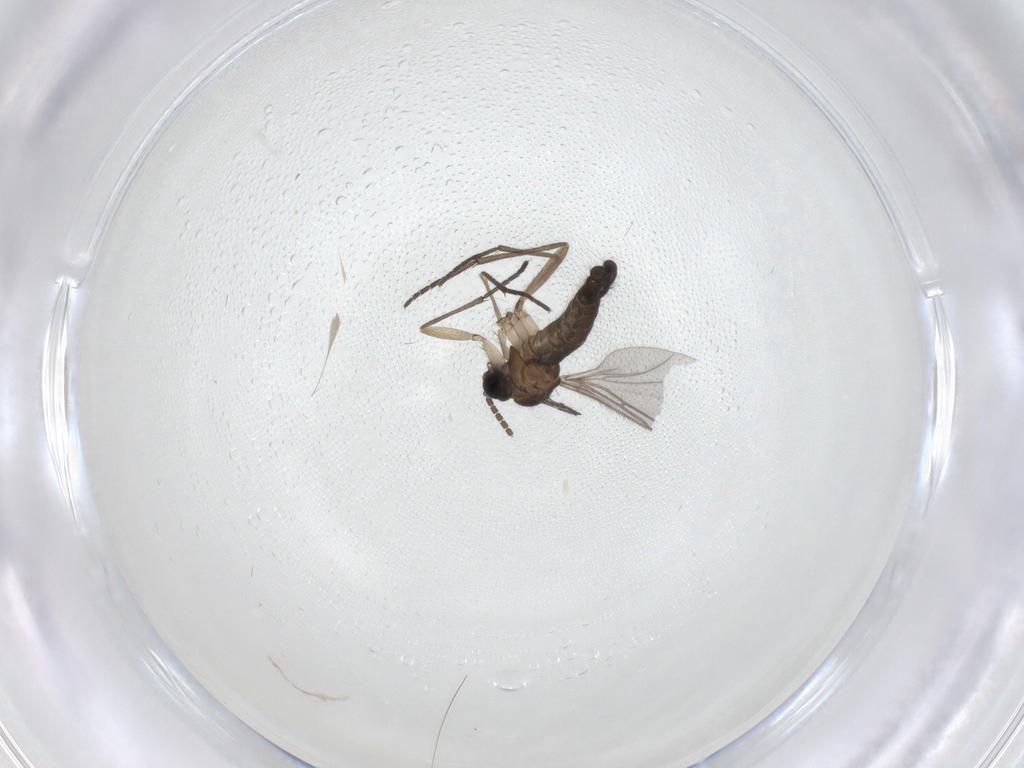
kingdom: Animalia
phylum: Arthropoda
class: Insecta
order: Diptera
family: Sciaridae
